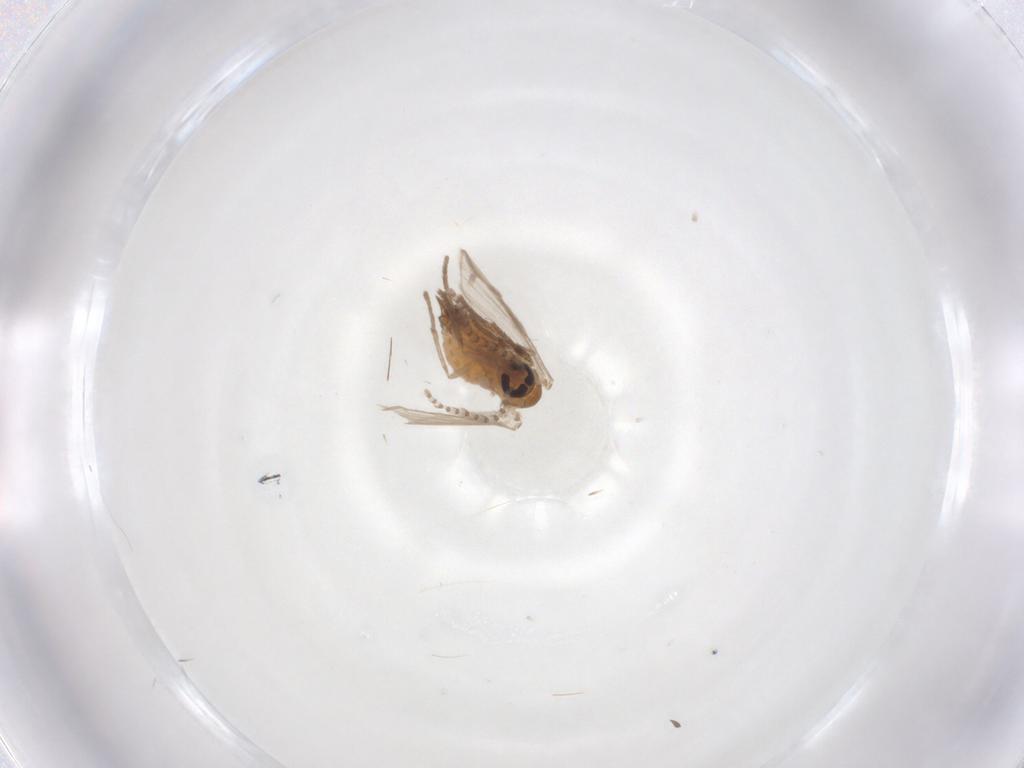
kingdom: Animalia
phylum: Arthropoda
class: Insecta
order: Diptera
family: Psychodidae
